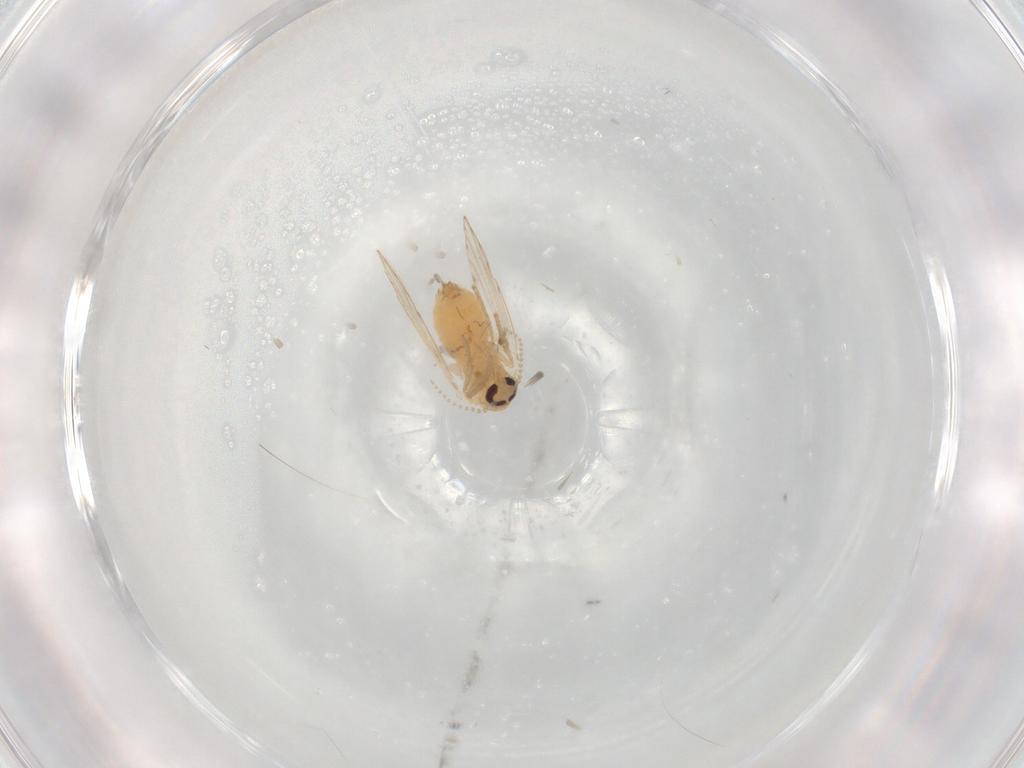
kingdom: Animalia
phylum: Arthropoda
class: Insecta
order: Diptera
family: Psychodidae
